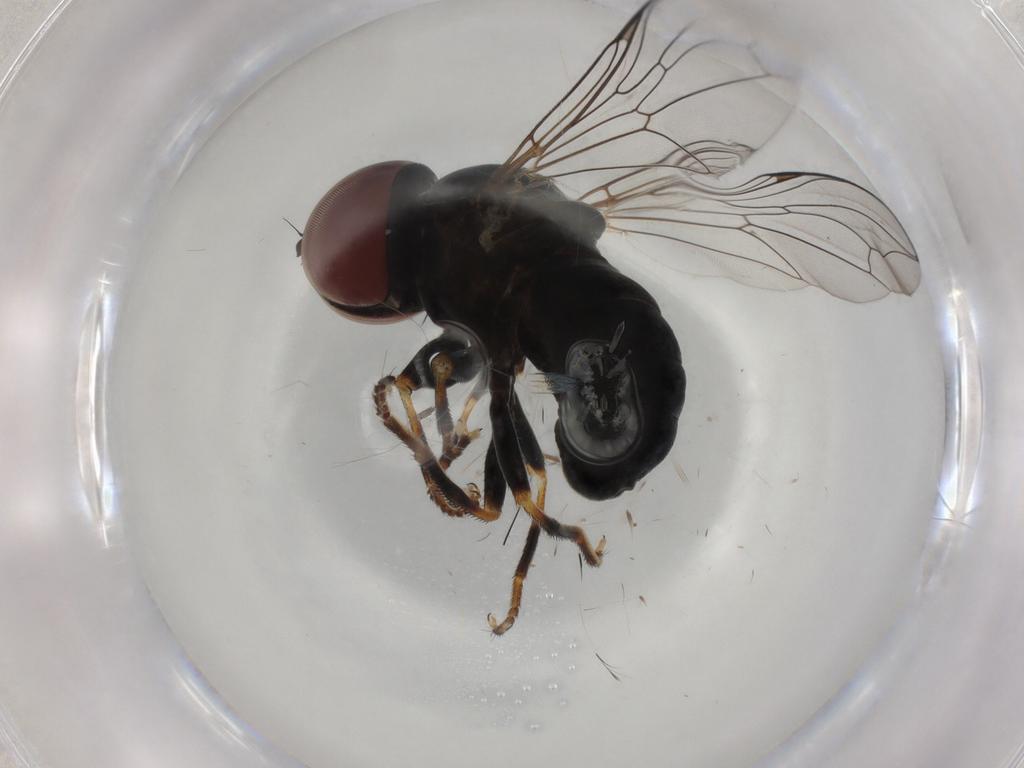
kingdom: Animalia
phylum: Arthropoda
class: Insecta
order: Diptera
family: Pipunculidae
